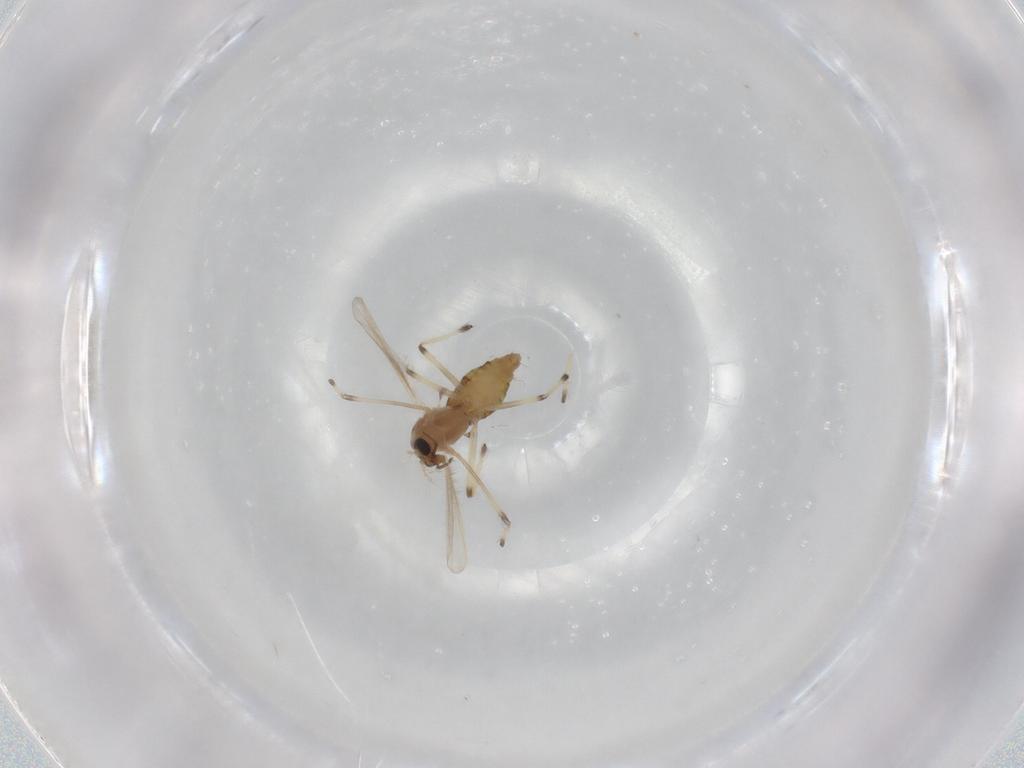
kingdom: Animalia
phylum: Arthropoda
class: Insecta
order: Diptera
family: Chironomidae
